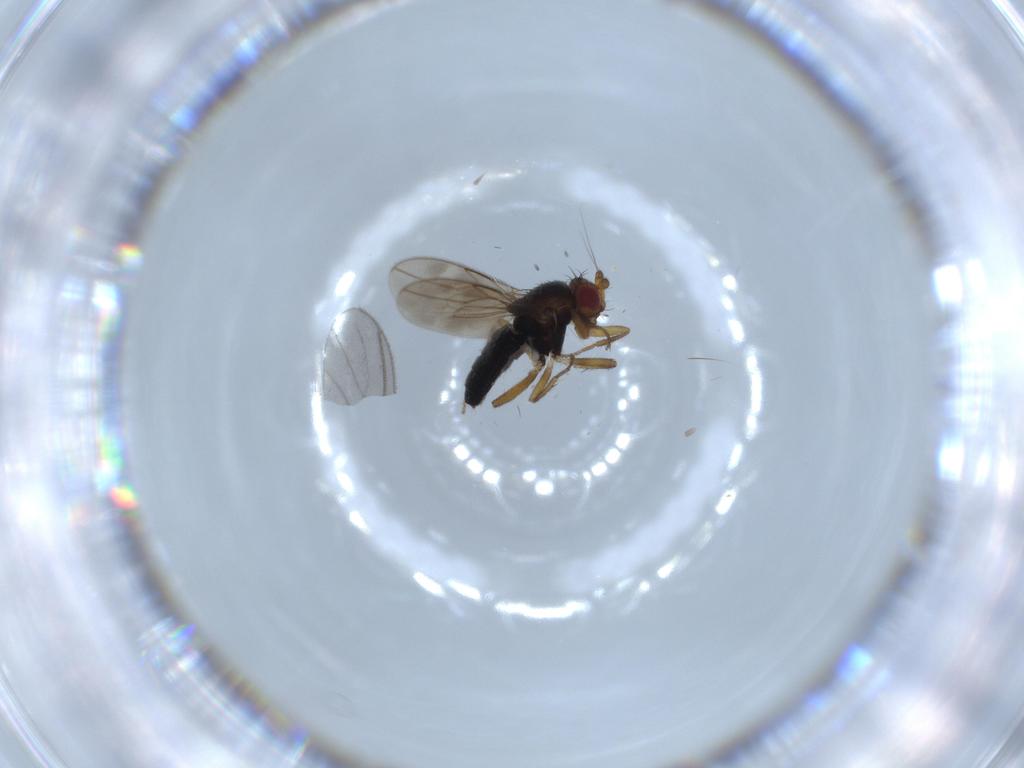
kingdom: Animalia
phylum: Arthropoda
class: Insecta
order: Diptera
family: Sphaeroceridae
